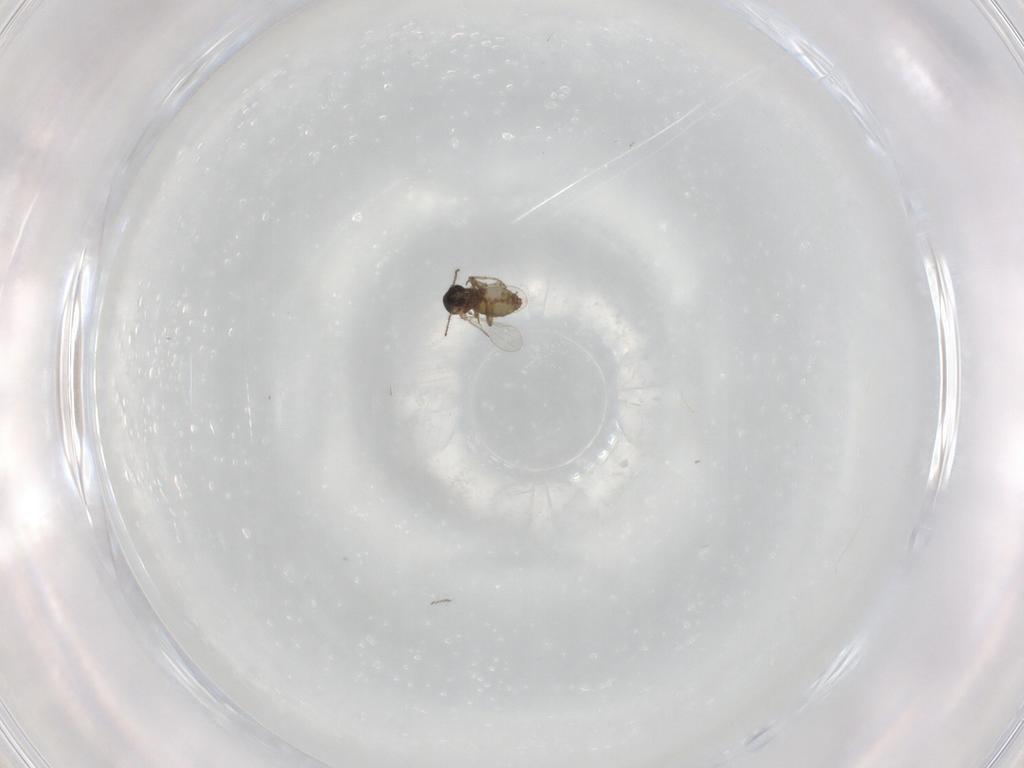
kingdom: Animalia
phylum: Arthropoda
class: Insecta
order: Diptera
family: Ceratopogonidae
